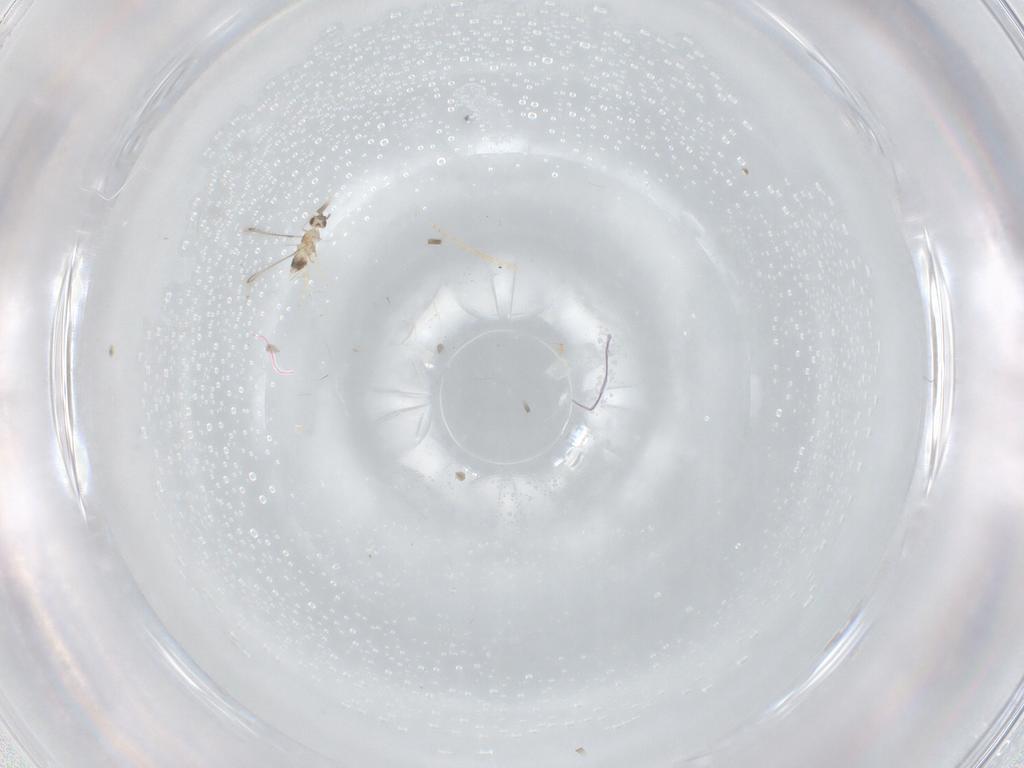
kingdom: Animalia
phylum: Arthropoda
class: Insecta
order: Hymenoptera
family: Mymaridae
